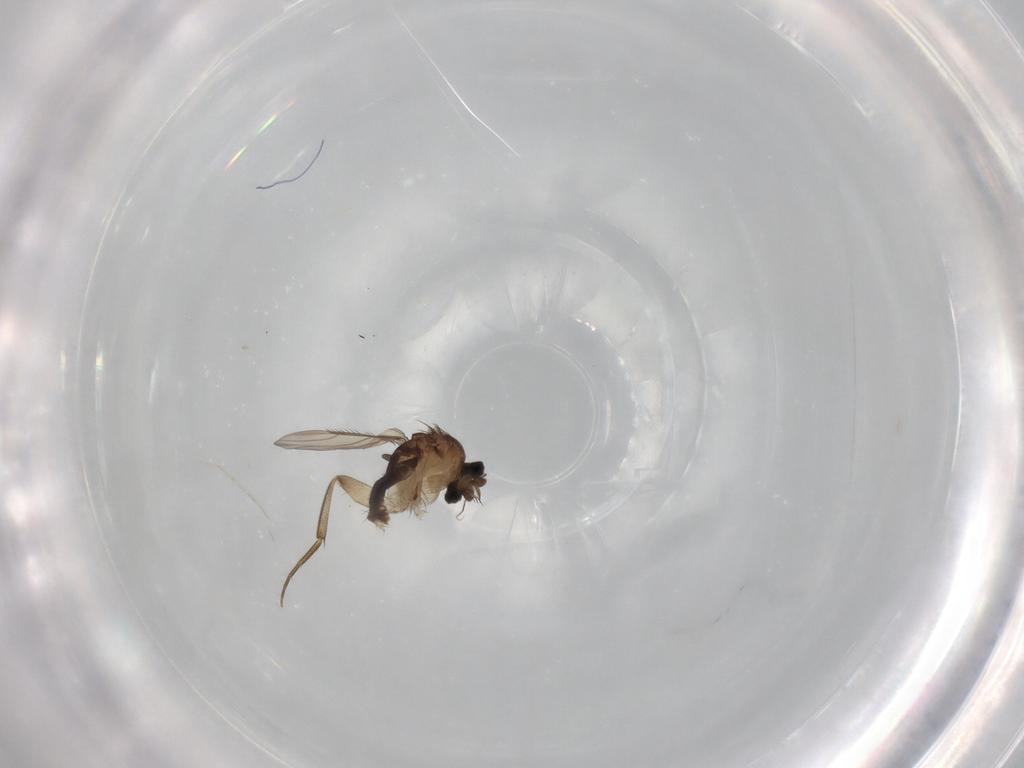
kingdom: Animalia
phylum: Arthropoda
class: Insecta
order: Diptera
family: Phoridae
